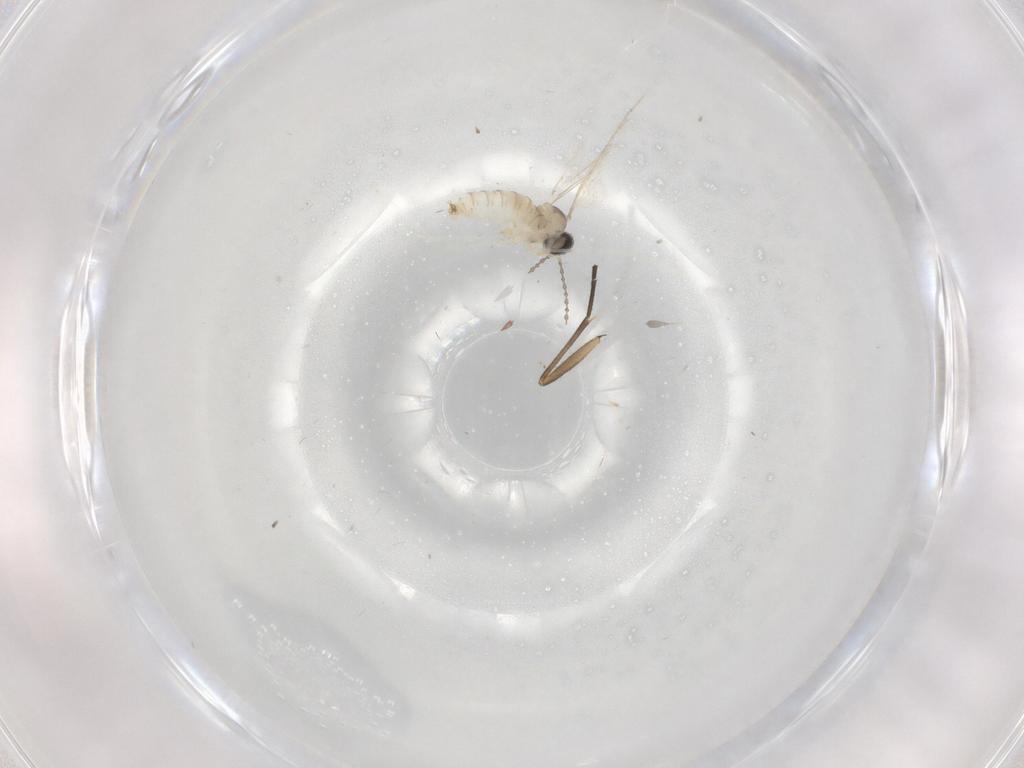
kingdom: Animalia
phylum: Arthropoda
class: Insecta
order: Diptera
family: Cecidomyiidae
